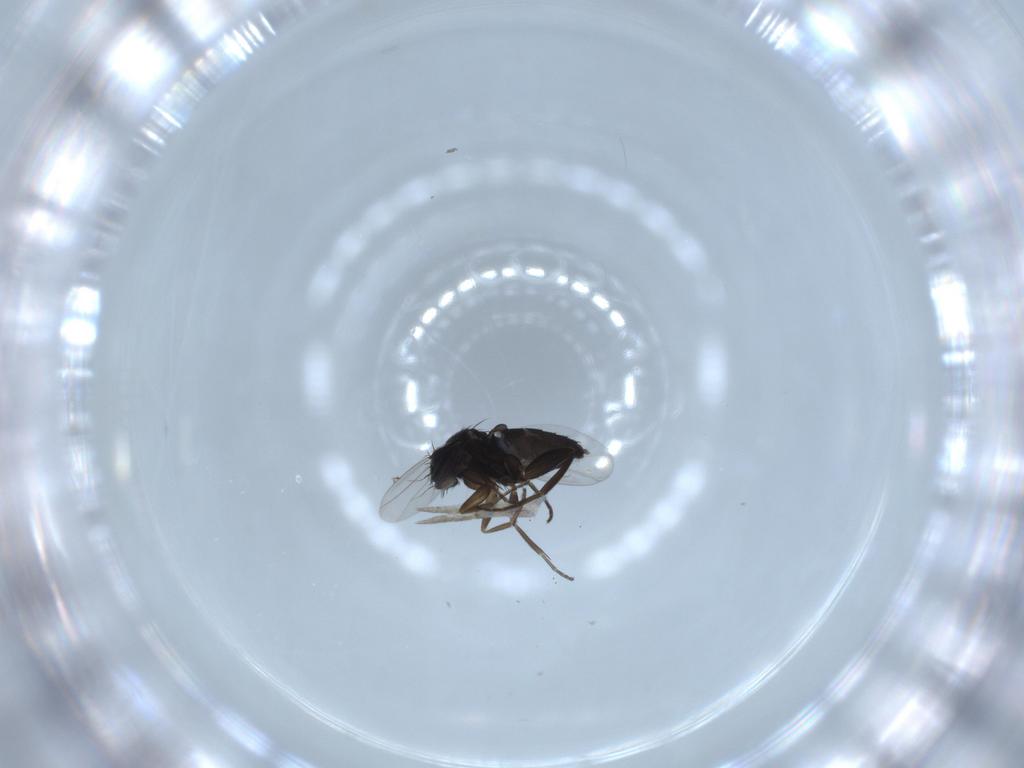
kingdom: Animalia
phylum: Arthropoda
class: Insecta
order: Diptera
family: Phoridae
